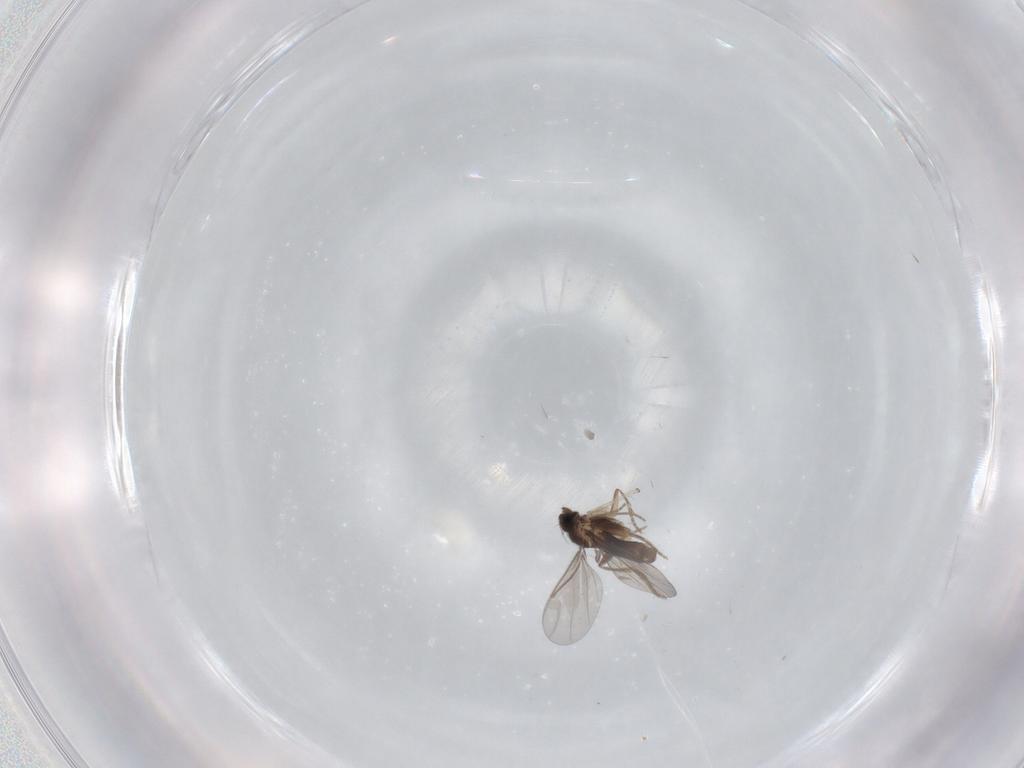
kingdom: Animalia
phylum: Arthropoda
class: Insecta
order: Diptera
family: Chironomidae
